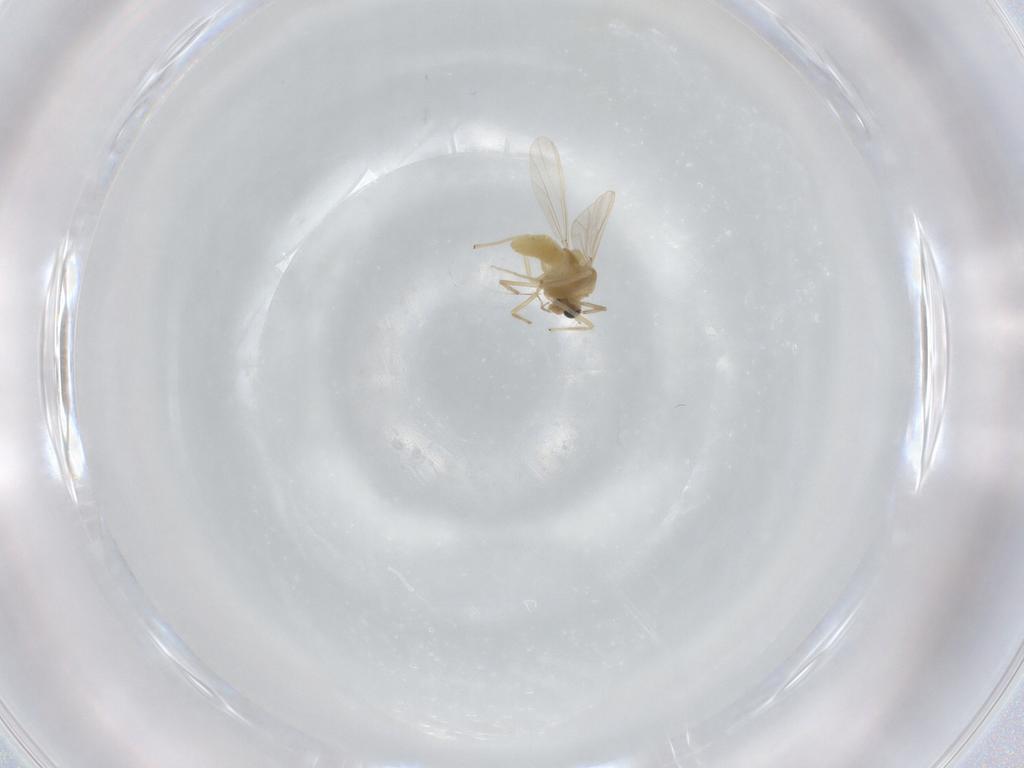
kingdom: Animalia
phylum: Arthropoda
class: Insecta
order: Diptera
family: Chironomidae
